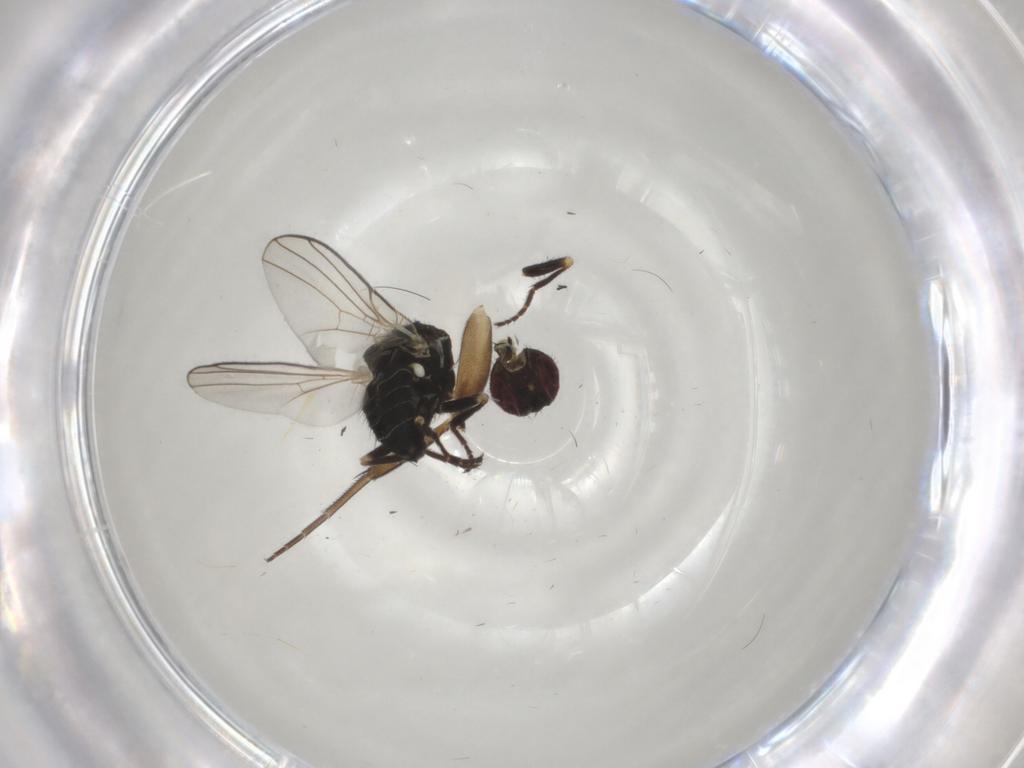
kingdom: Animalia
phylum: Arthropoda
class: Insecta
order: Diptera
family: Agromyzidae
